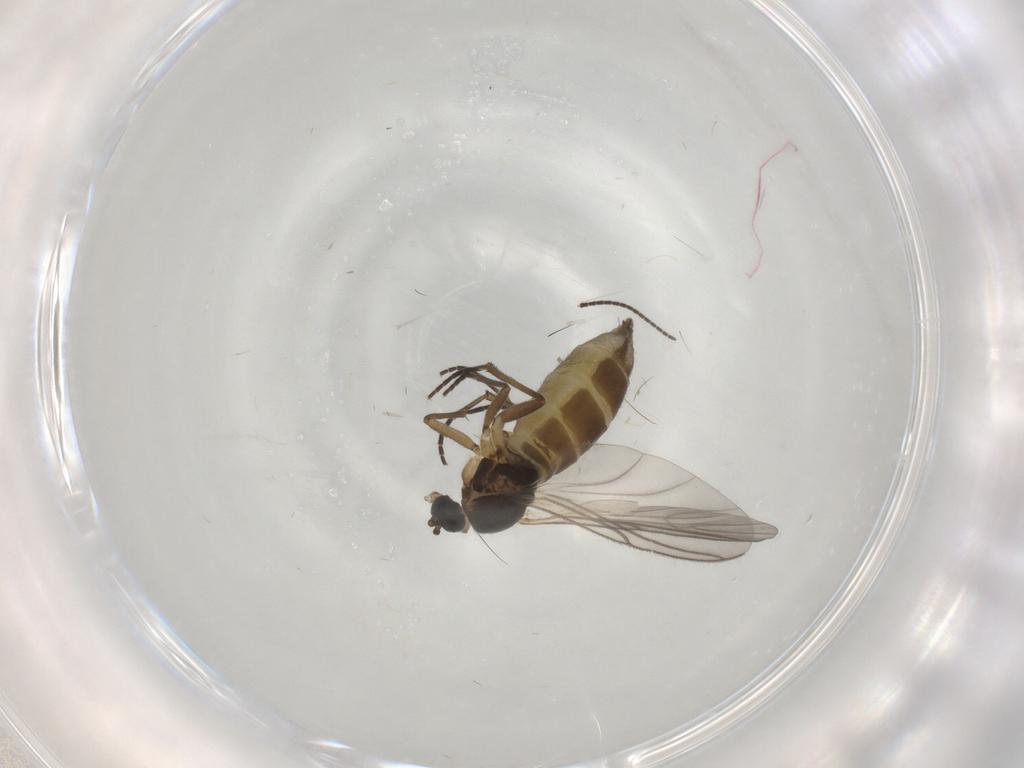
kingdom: Animalia
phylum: Arthropoda
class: Insecta
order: Diptera
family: Sciaridae
